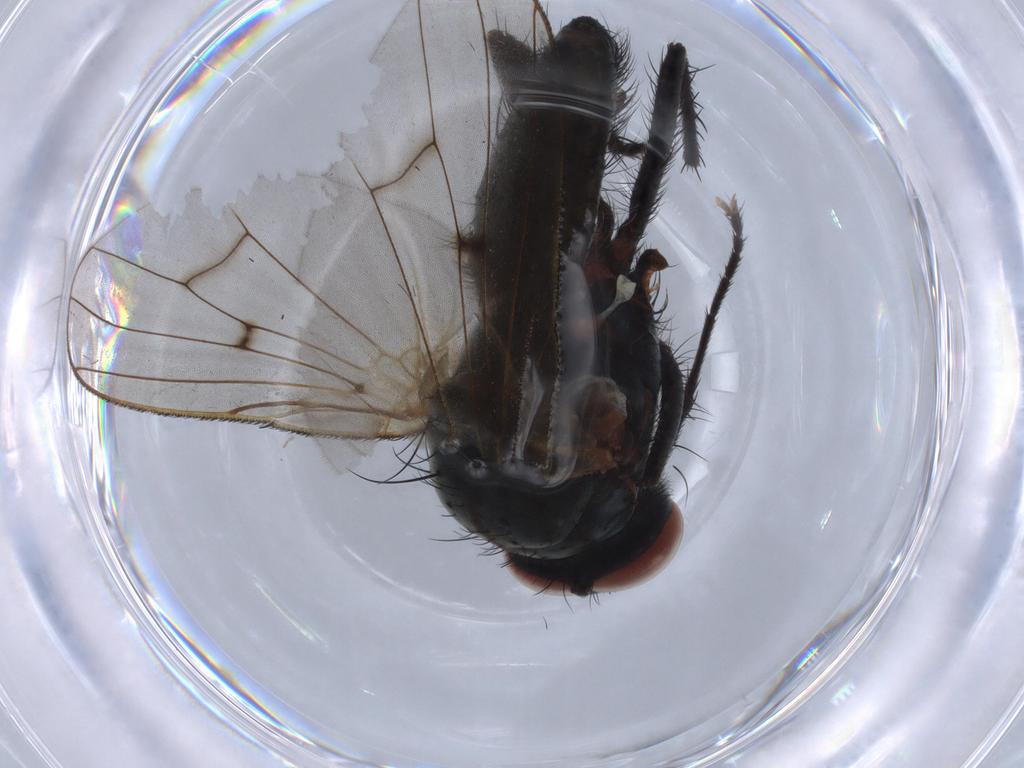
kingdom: Animalia
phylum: Arthropoda
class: Insecta
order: Diptera
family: Anthomyiidae
